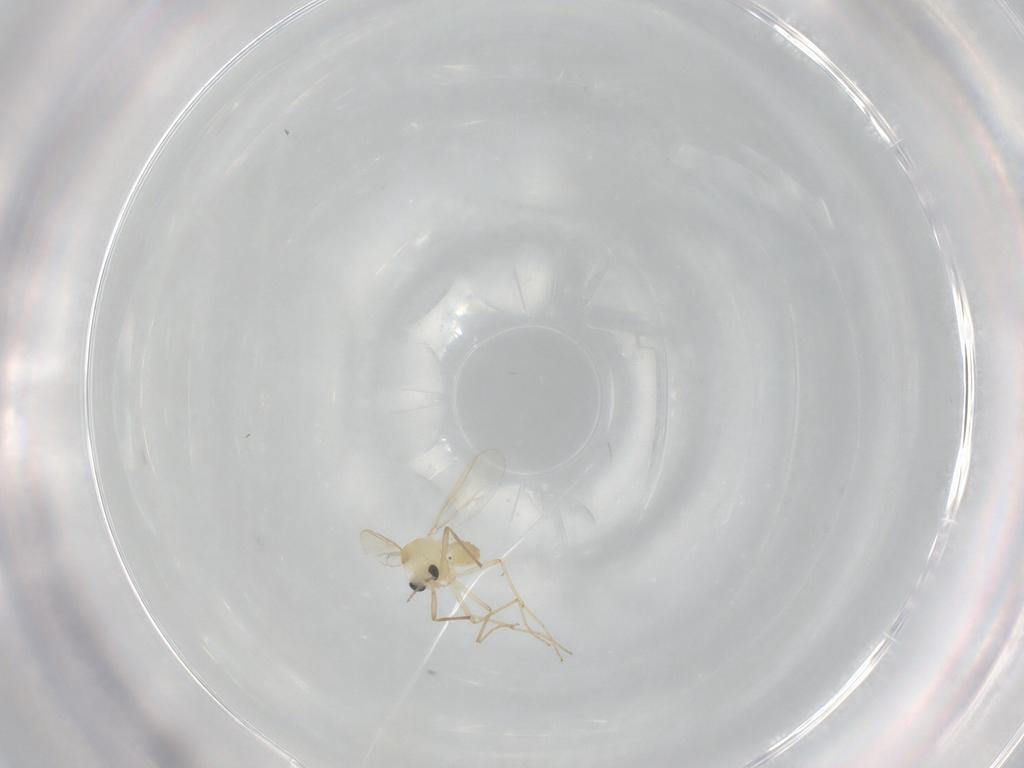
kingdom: Animalia
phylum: Arthropoda
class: Insecta
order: Diptera
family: Chironomidae
